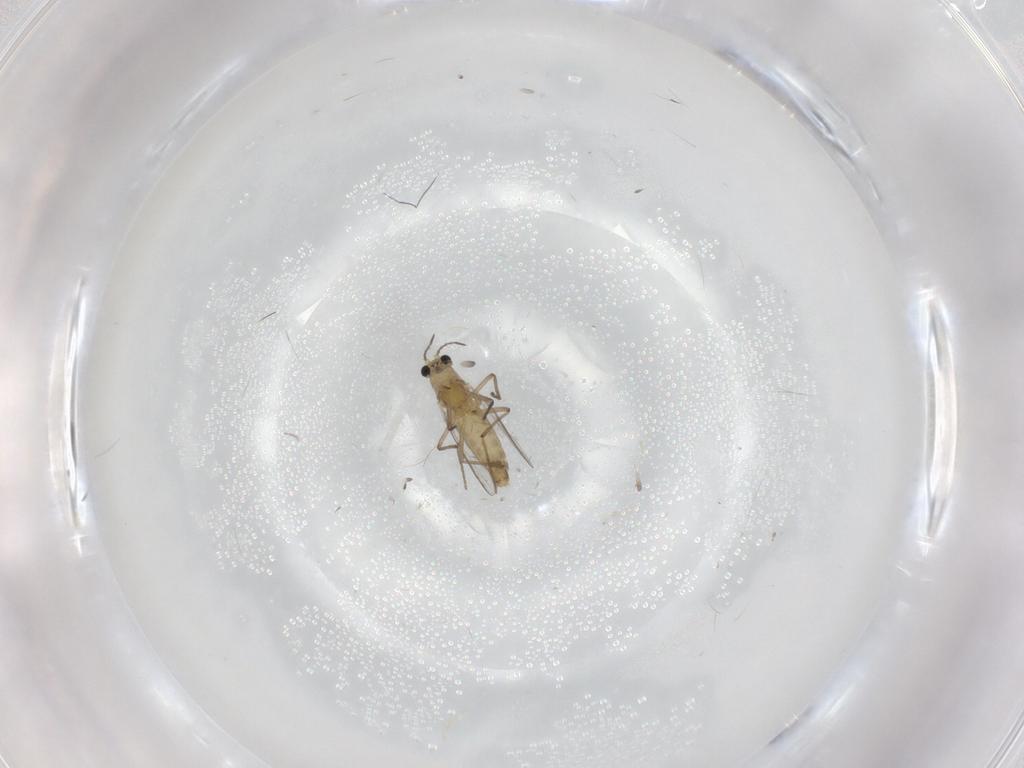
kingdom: Animalia
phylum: Arthropoda
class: Insecta
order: Diptera
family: Chironomidae
